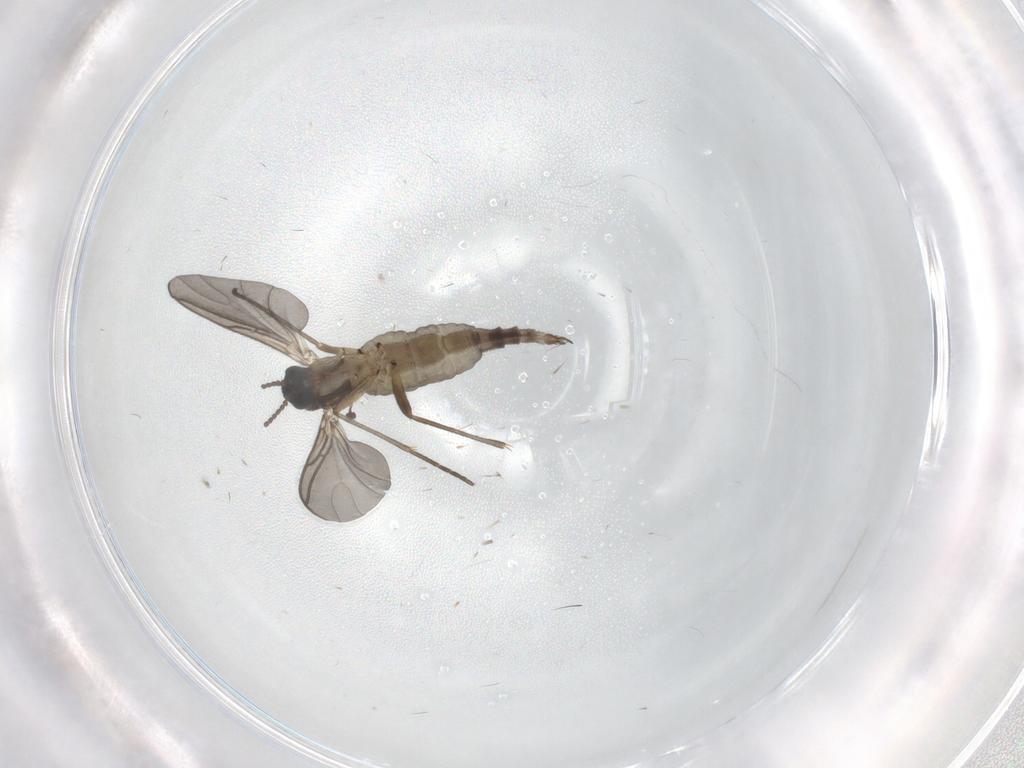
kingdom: Animalia
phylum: Arthropoda
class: Insecta
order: Diptera
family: Sciaridae
